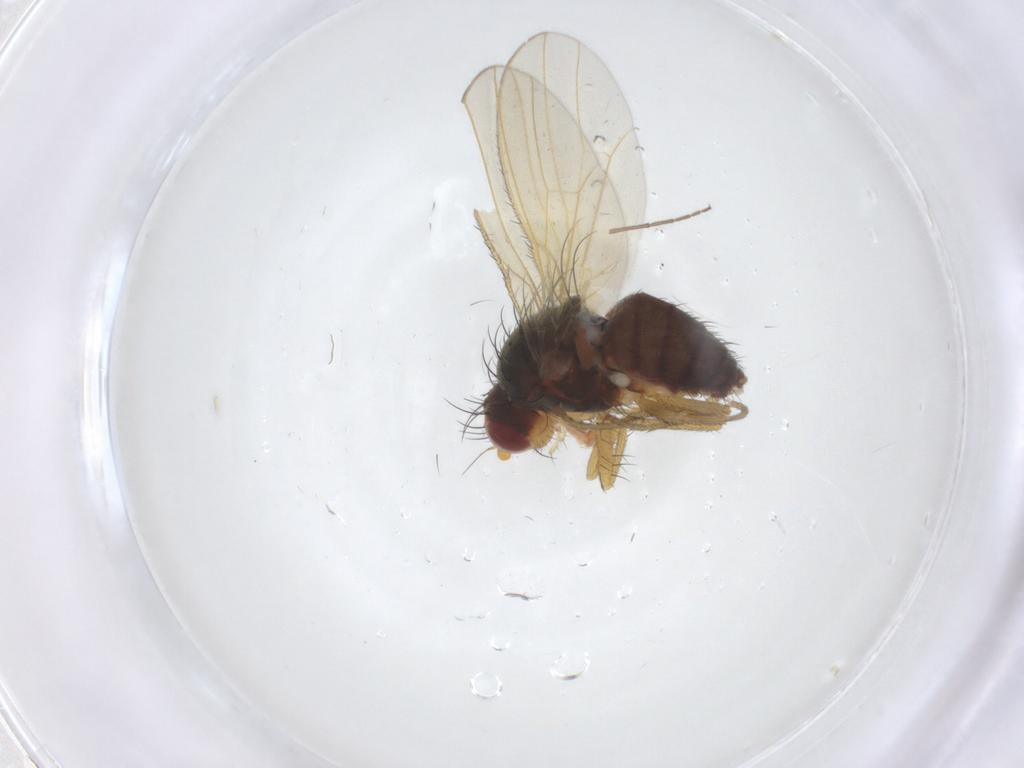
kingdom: Animalia
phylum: Arthropoda
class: Insecta
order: Diptera
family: Heleomyzidae
